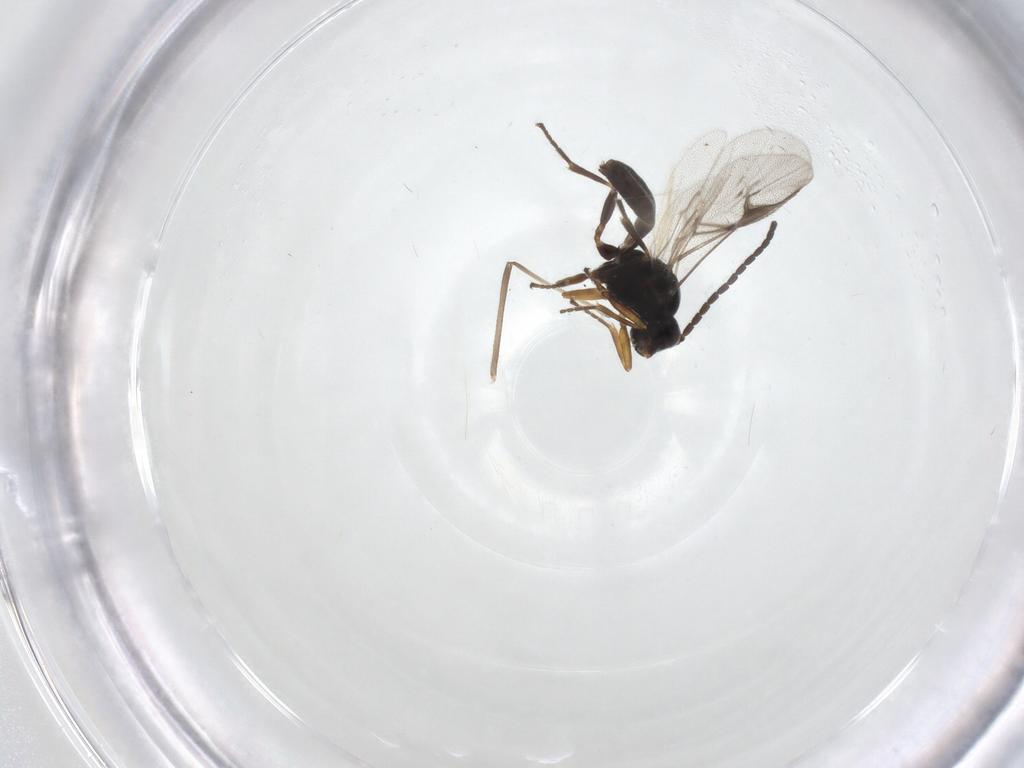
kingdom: Animalia
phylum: Arthropoda
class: Insecta
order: Hymenoptera
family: Braconidae
